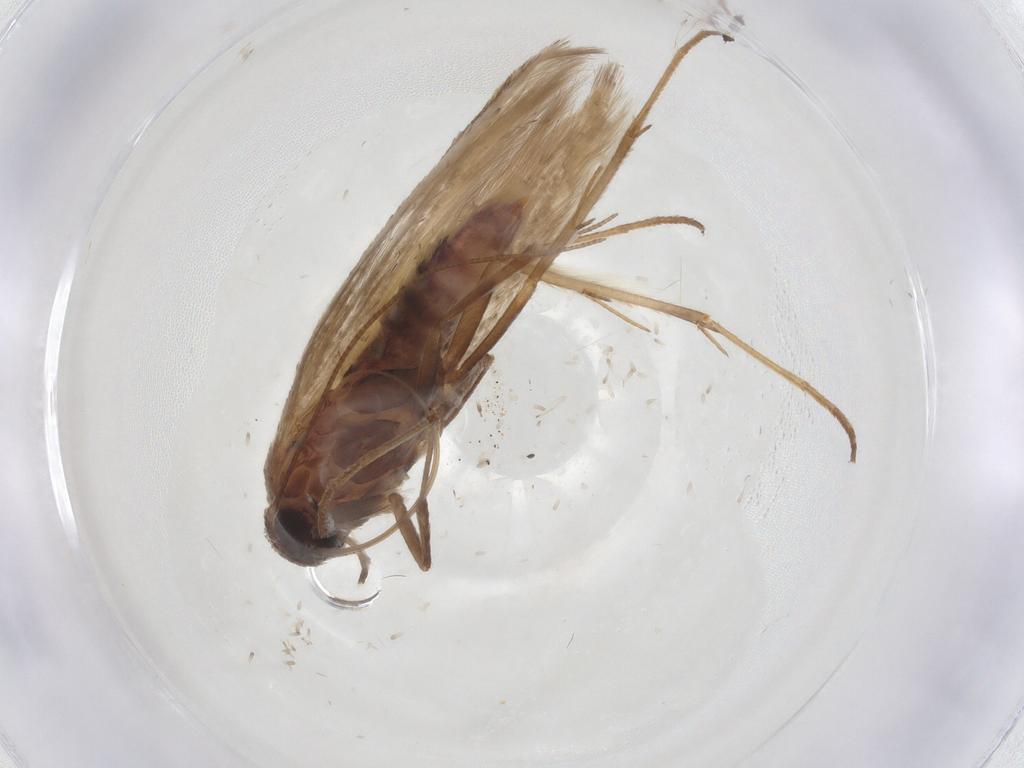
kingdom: Animalia
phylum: Arthropoda
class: Insecta
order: Lepidoptera
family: Scythrididae
